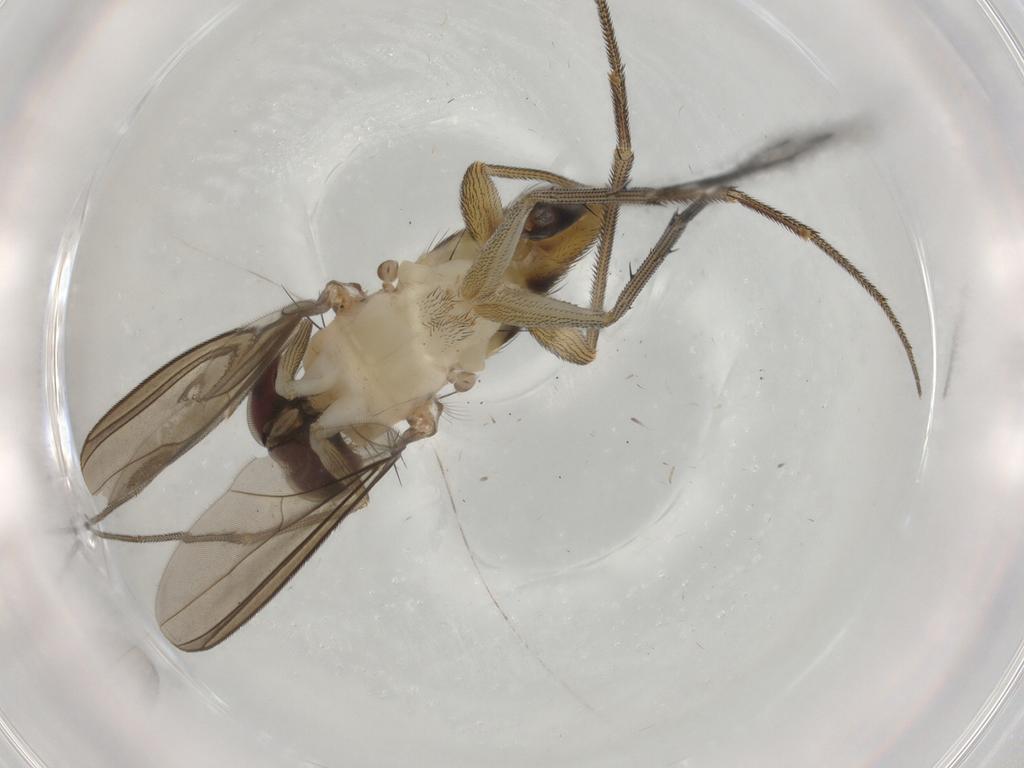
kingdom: Animalia
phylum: Arthropoda
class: Insecta
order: Diptera
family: Dolichopodidae
